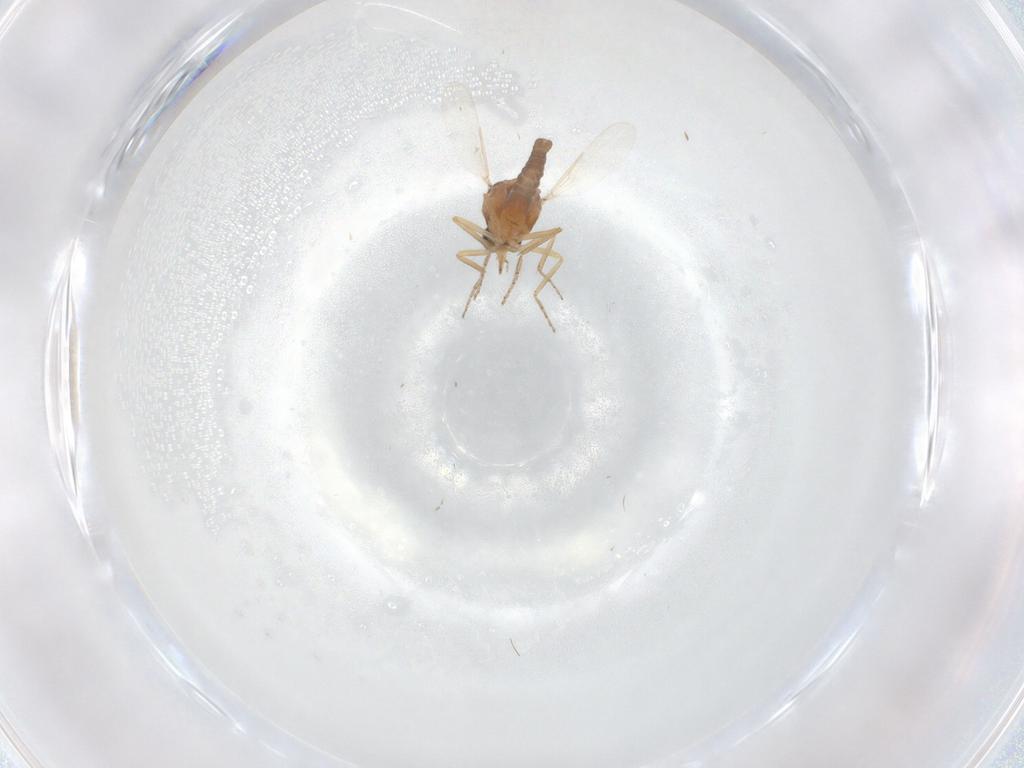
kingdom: Animalia
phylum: Arthropoda
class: Insecta
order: Diptera
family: Ceratopogonidae
